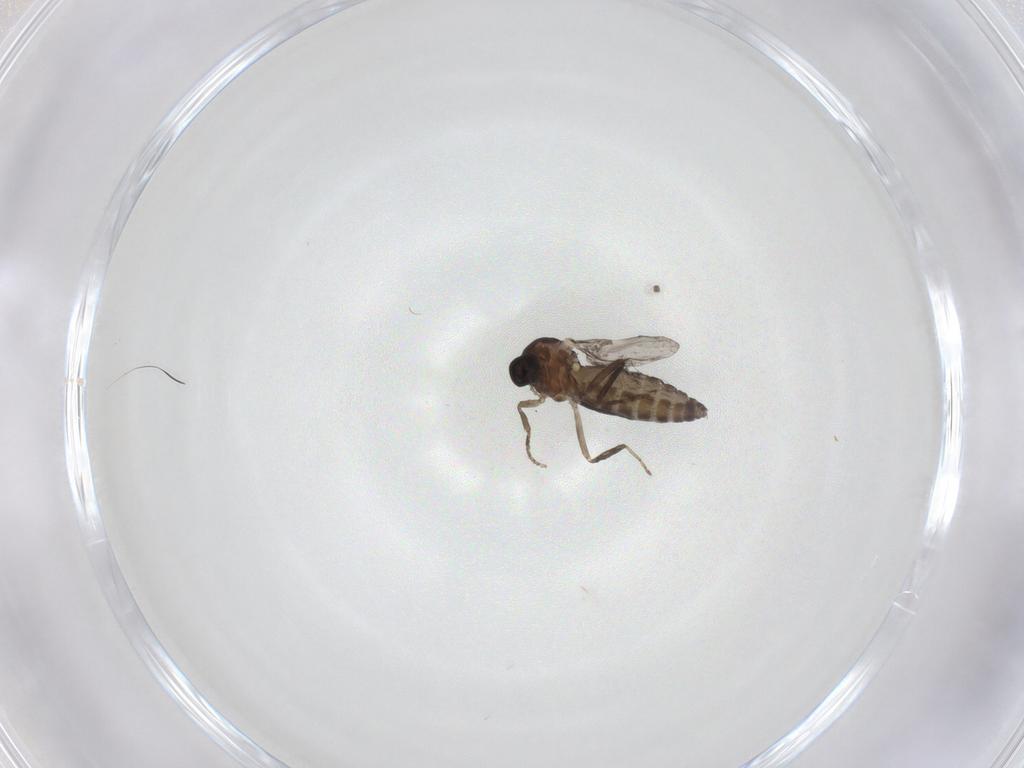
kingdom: Animalia
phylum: Arthropoda
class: Insecta
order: Diptera
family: Ceratopogonidae
